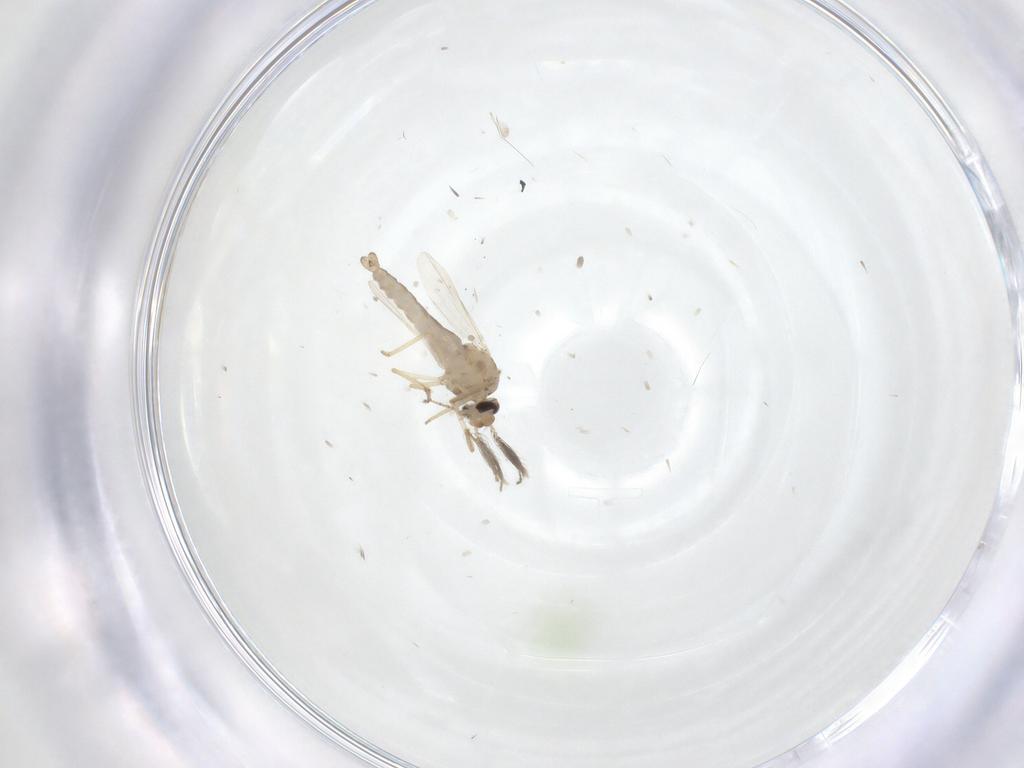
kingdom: Animalia
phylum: Arthropoda
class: Insecta
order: Diptera
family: Ceratopogonidae
